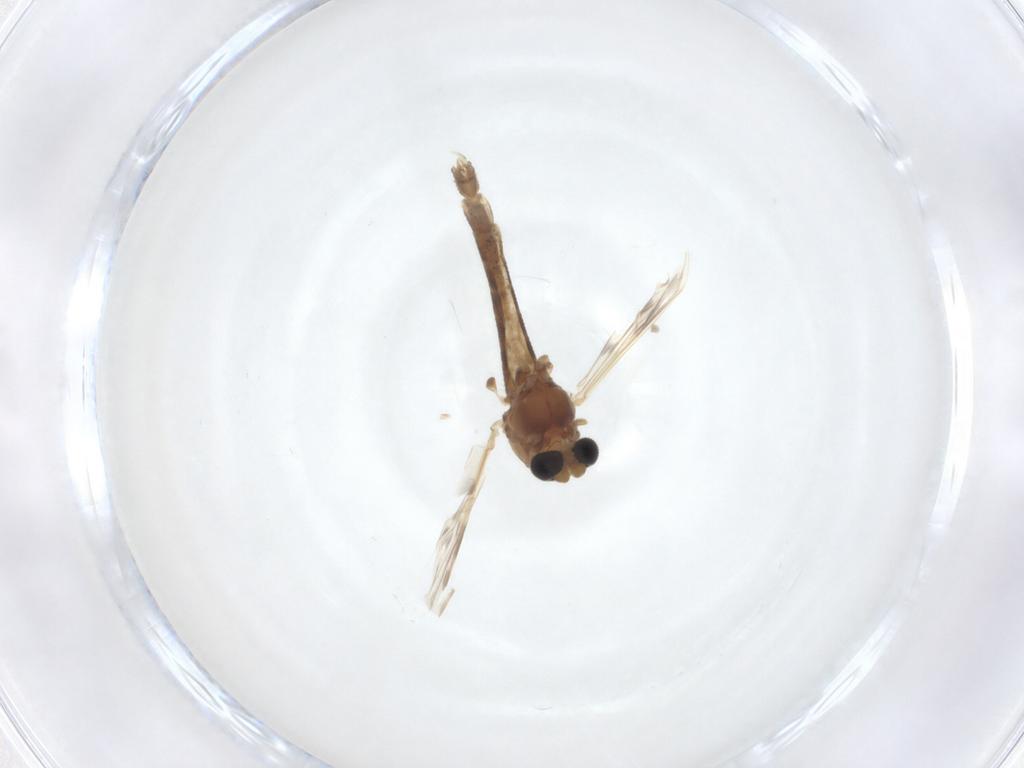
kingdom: Animalia
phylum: Arthropoda
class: Insecta
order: Diptera
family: Chironomidae
